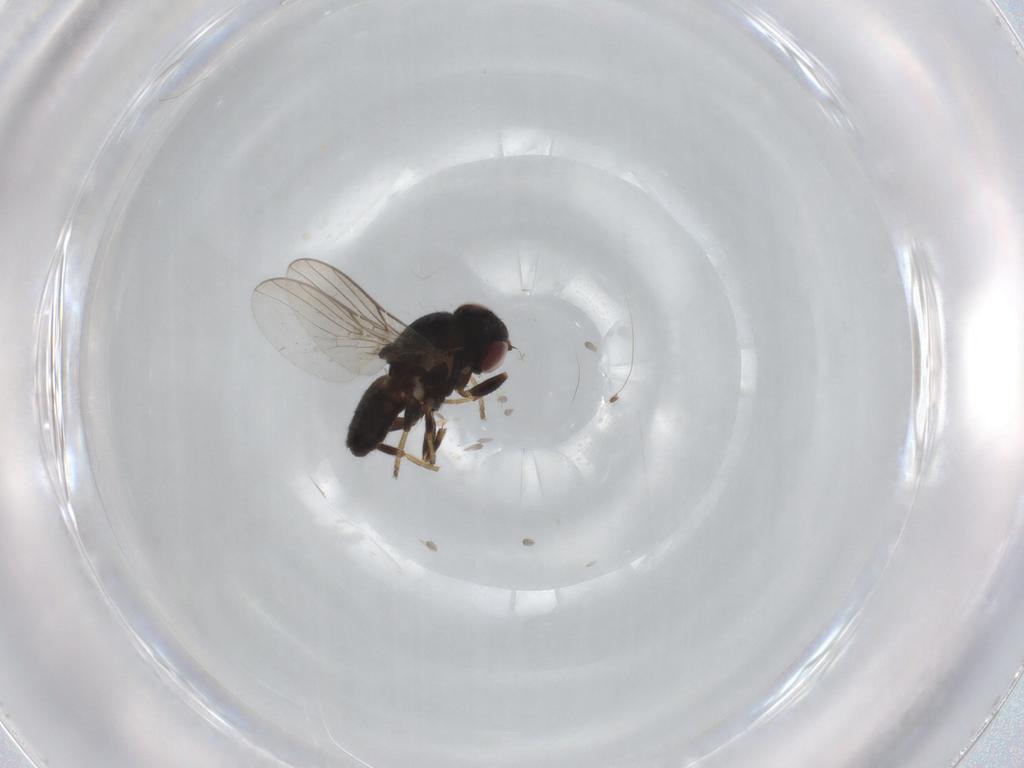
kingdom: Animalia
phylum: Arthropoda
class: Insecta
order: Diptera
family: Chloropidae
